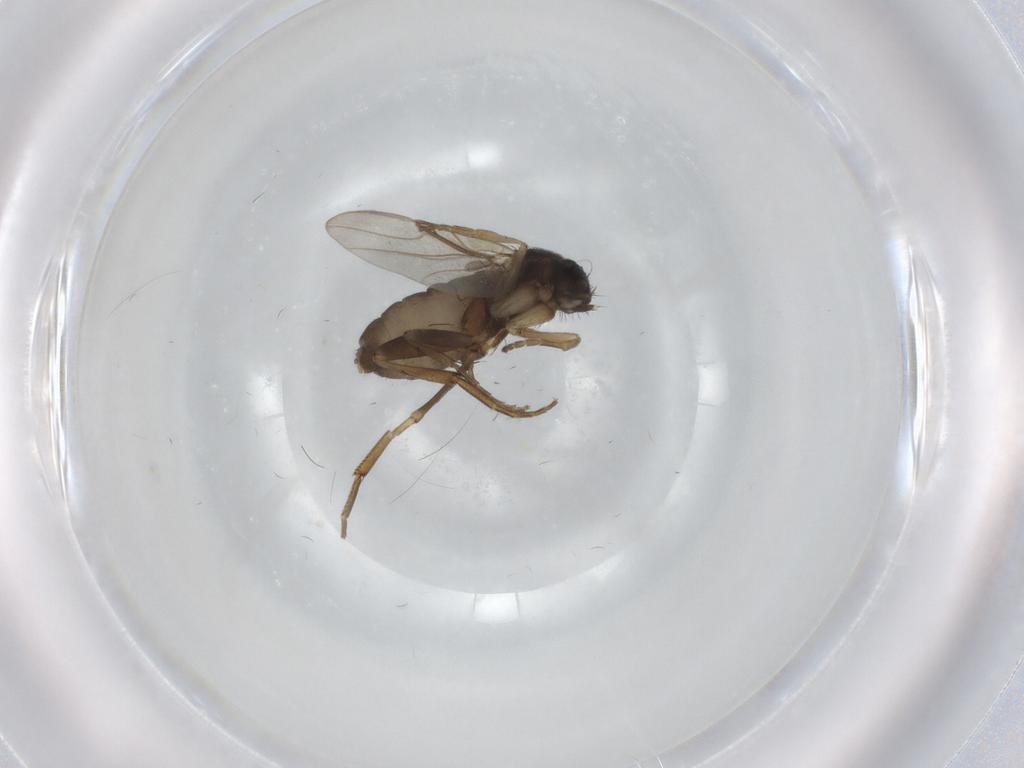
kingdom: Animalia
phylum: Arthropoda
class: Insecta
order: Diptera
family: Phoridae
